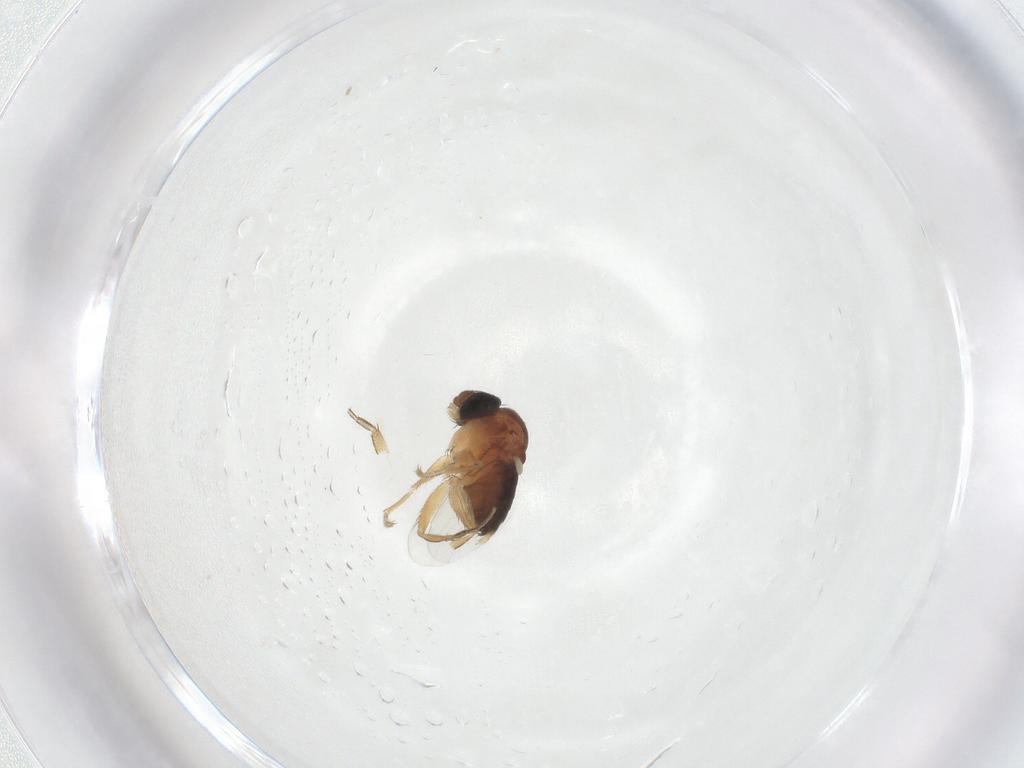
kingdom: Animalia
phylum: Arthropoda
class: Insecta
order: Diptera
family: Phoridae
